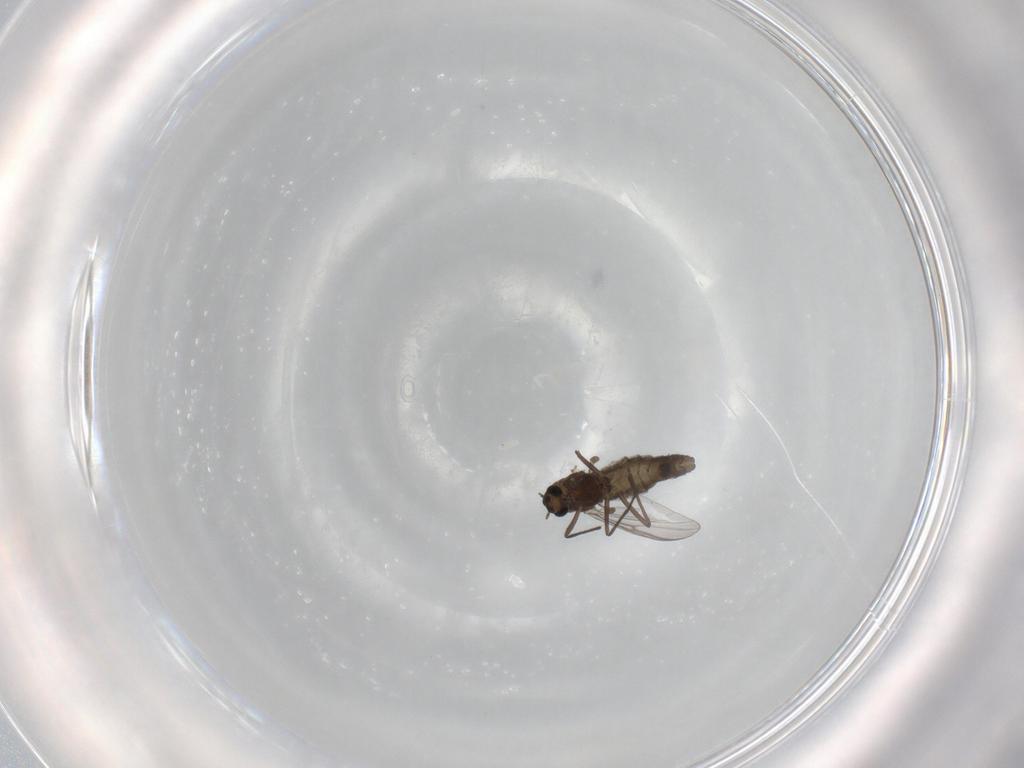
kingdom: Animalia
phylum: Arthropoda
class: Insecta
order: Diptera
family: Chironomidae
